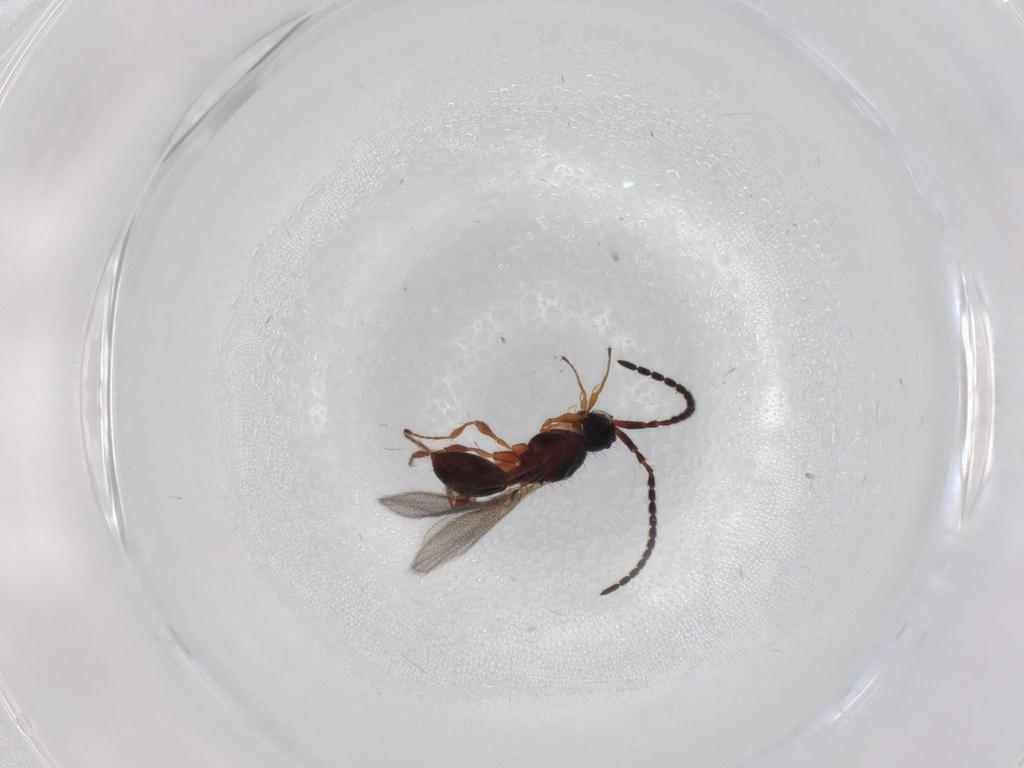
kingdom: Animalia
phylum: Arthropoda
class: Insecta
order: Hymenoptera
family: Diapriidae
